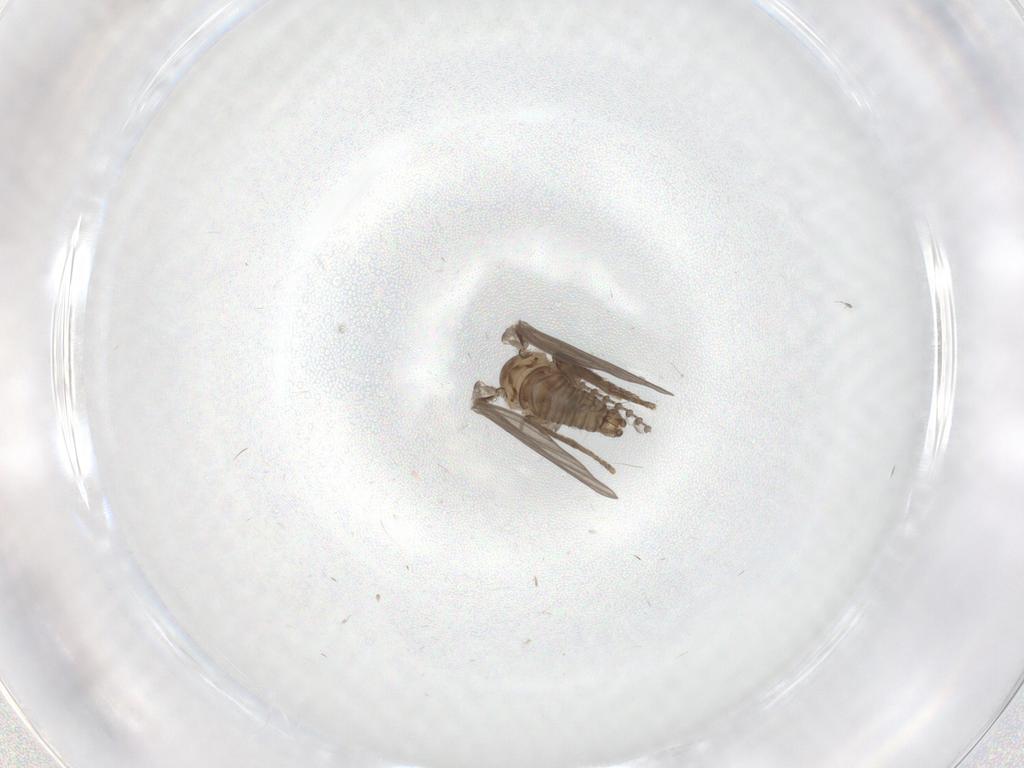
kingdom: Animalia
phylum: Arthropoda
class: Insecta
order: Diptera
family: Psychodidae
